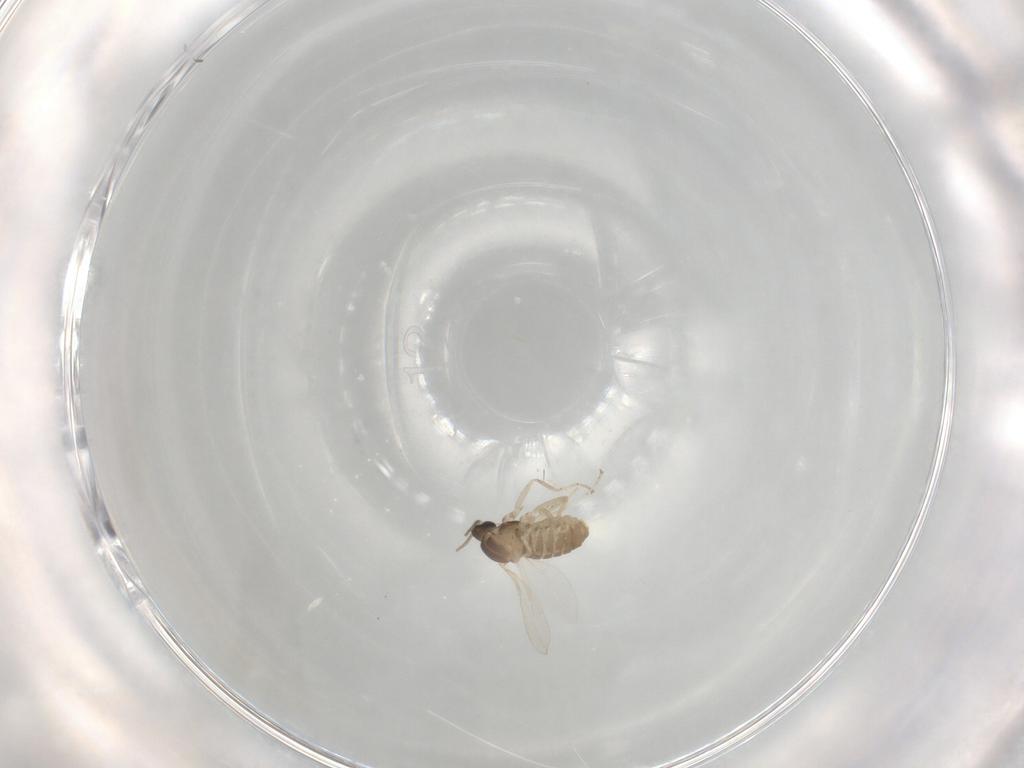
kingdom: Animalia
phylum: Arthropoda
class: Insecta
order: Diptera
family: Cecidomyiidae
